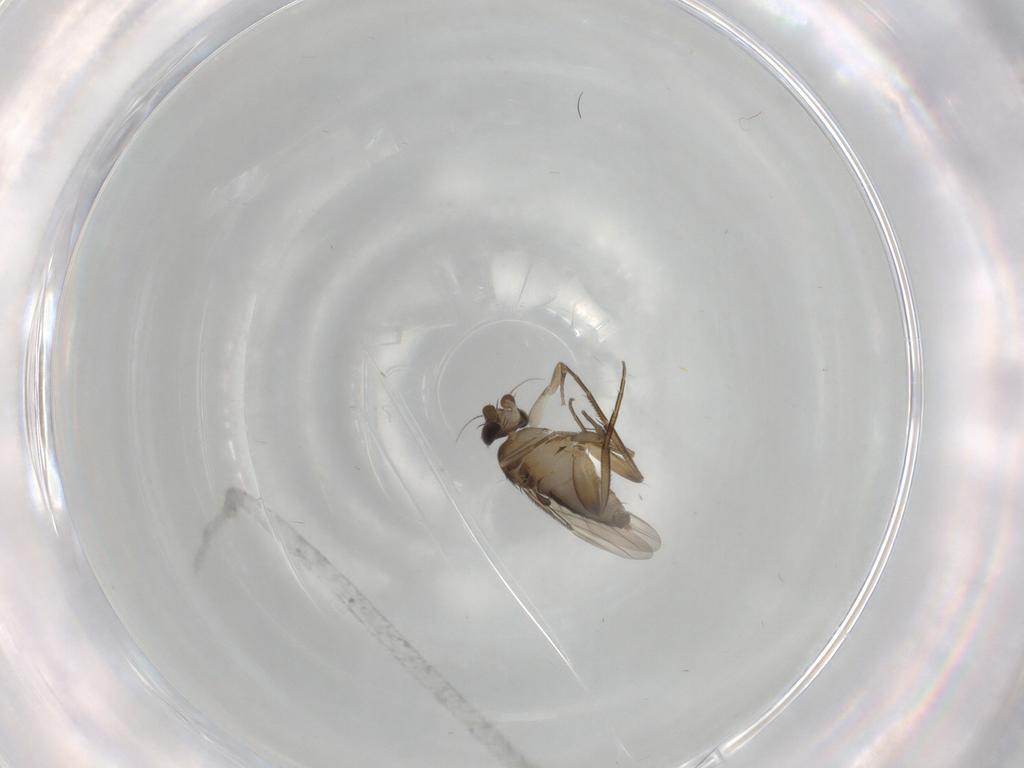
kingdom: Animalia
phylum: Arthropoda
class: Insecta
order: Diptera
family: Phoridae
